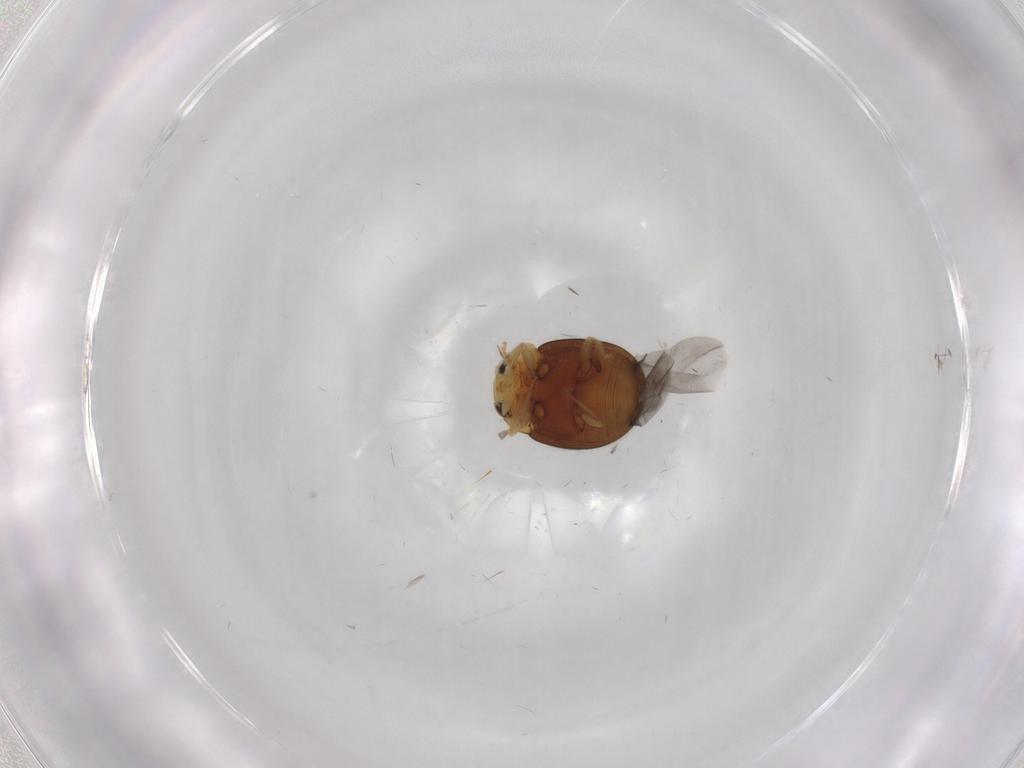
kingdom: Animalia
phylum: Arthropoda
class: Insecta
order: Coleoptera
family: Coccinellidae
